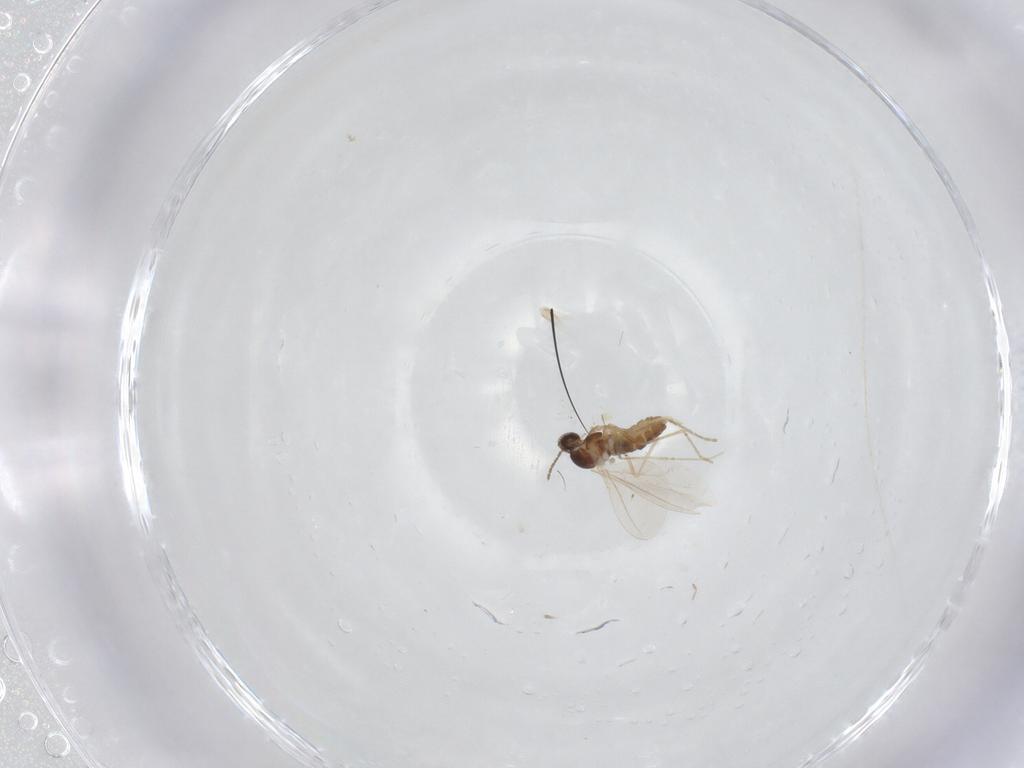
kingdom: Animalia
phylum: Arthropoda
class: Insecta
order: Diptera
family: Cecidomyiidae
